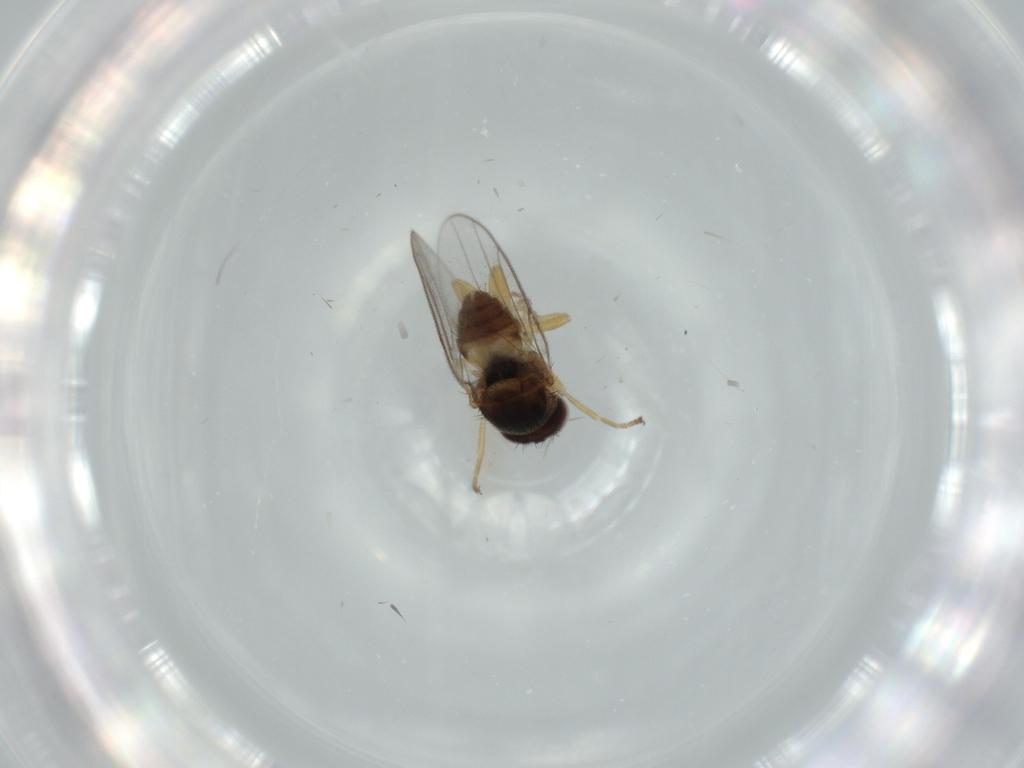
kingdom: Animalia
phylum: Arthropoda
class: Insecta
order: Diptera
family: Chloropidae
